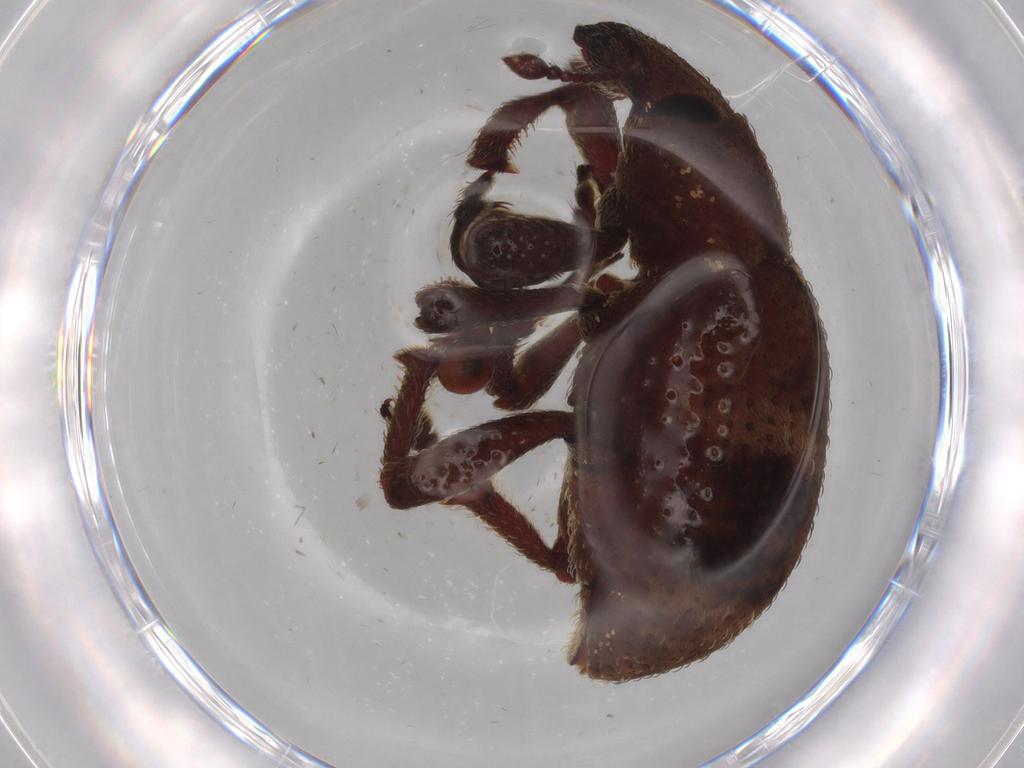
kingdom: Animalia
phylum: Arthropoda
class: Insecta
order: Coleoptera
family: Curculionidae
